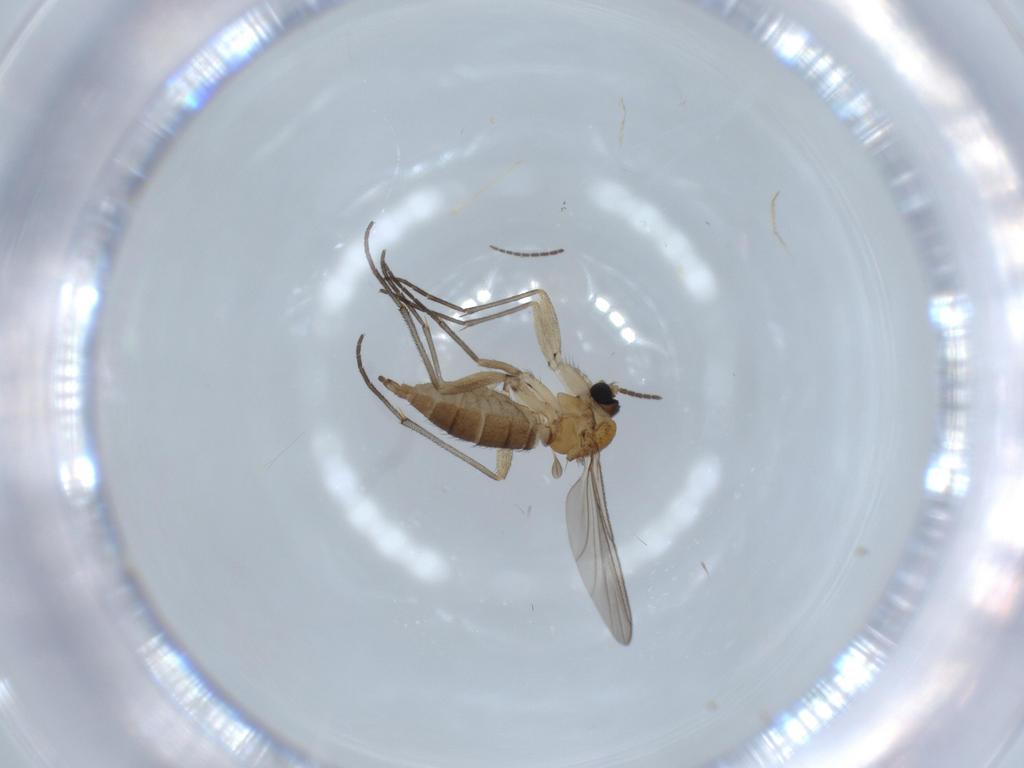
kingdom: Animalia
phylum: Arthropoda
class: Insecta
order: Diptera
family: Sciaridae
